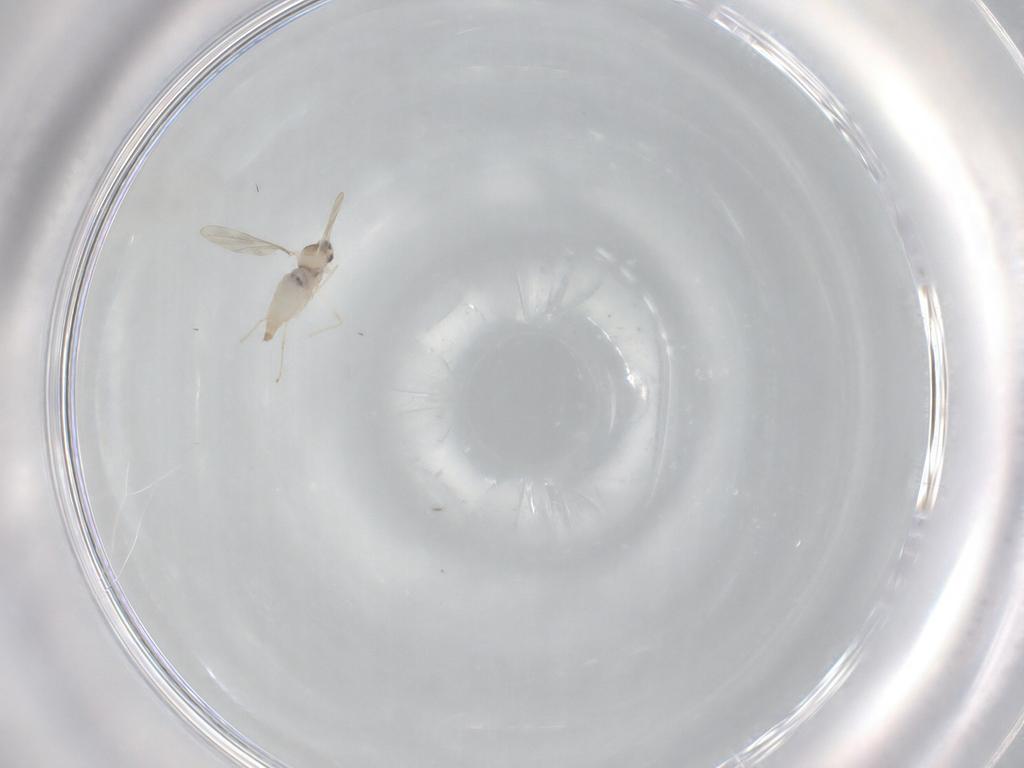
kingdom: Animalia
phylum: Arthropoda
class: Insecta
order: Diptera
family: Cecidomyiidae
